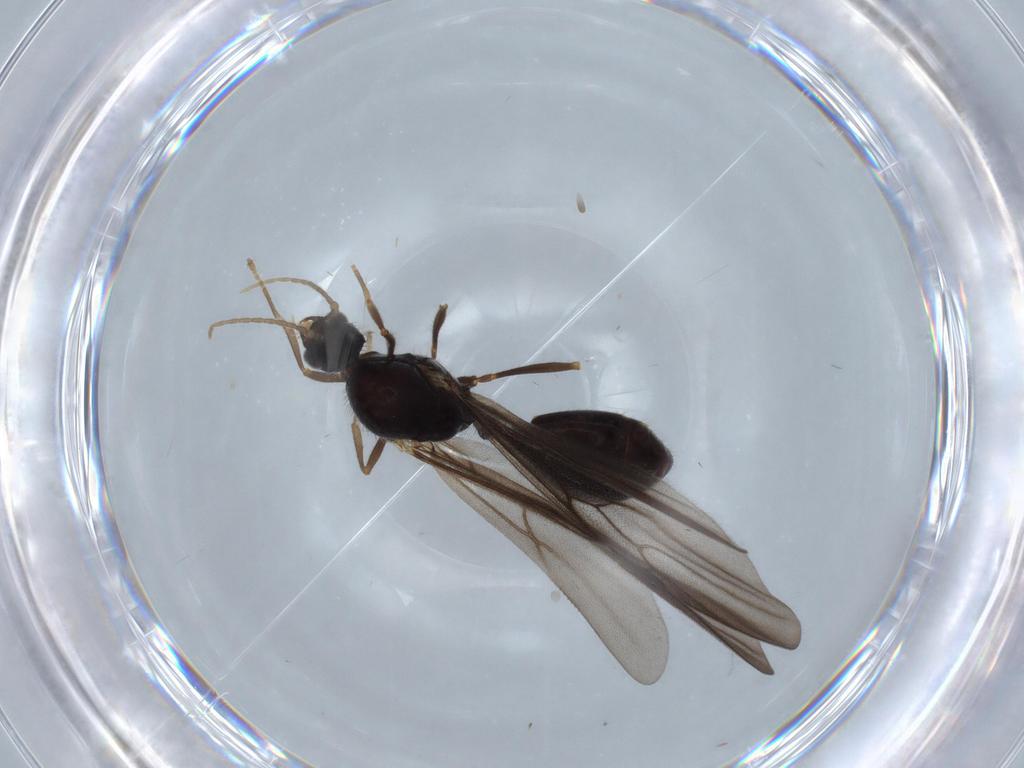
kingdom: Animalia
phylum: Arthropoda
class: Insecta
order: Hymenoptera
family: Formicidae
